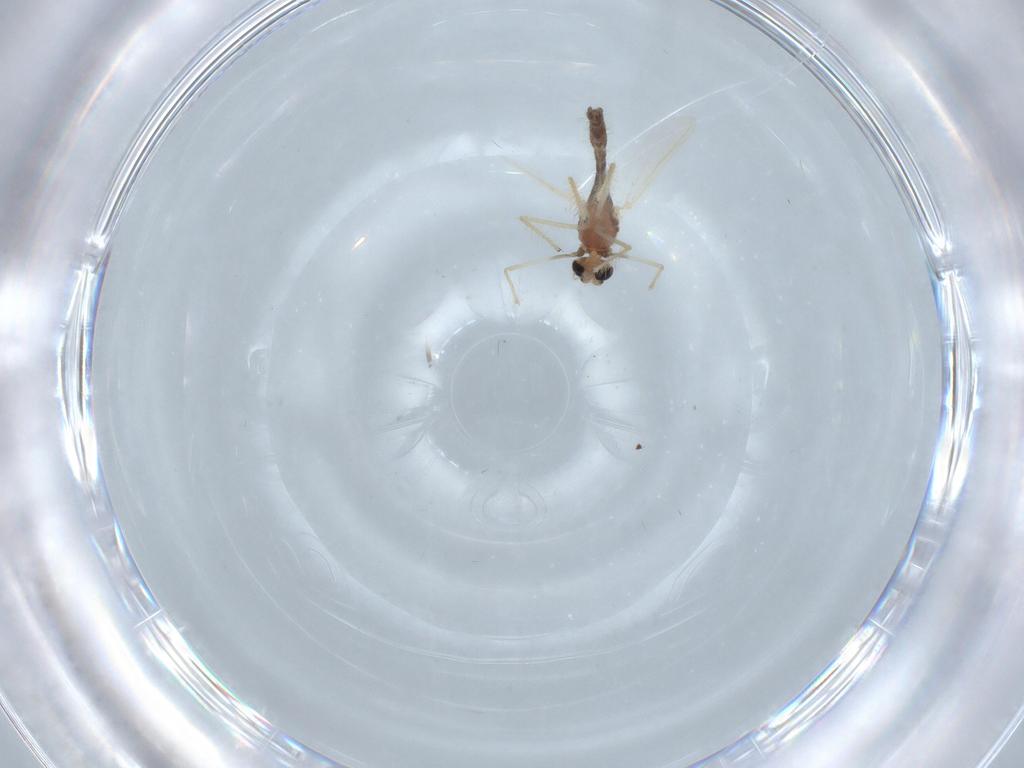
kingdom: Animalia
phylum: Arthropoda
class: Insecta
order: Diptera
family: Chironomidae
